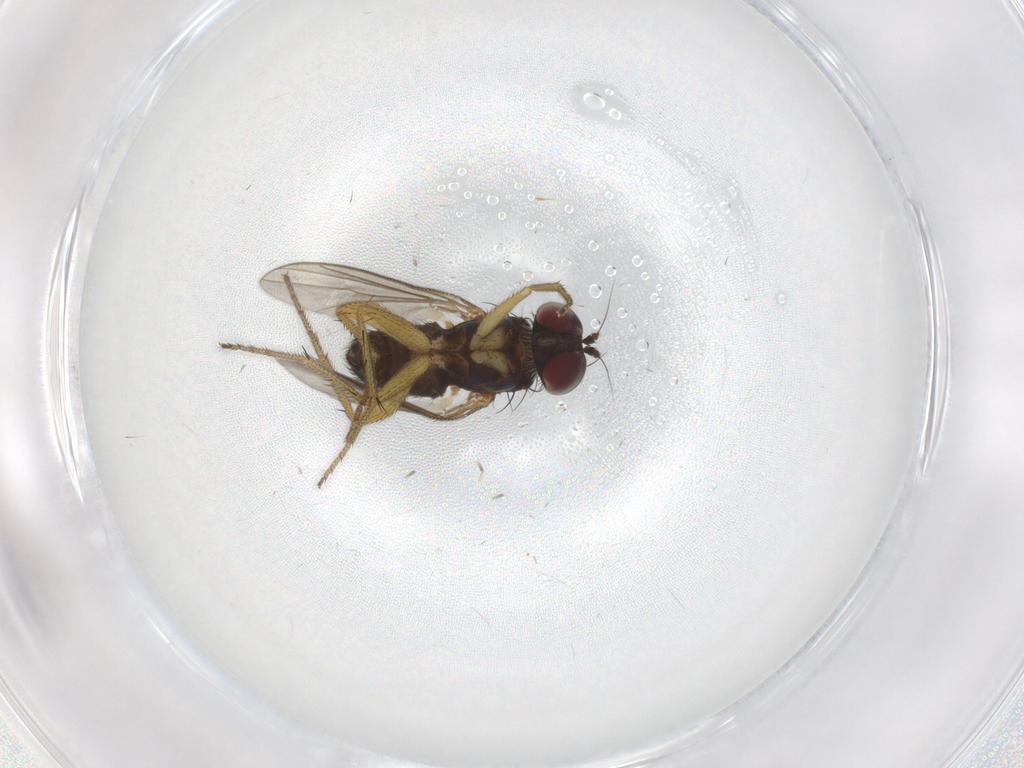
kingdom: Animalia
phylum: Arthropoda
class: Insecta
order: Diptera
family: Dolichopodidae
